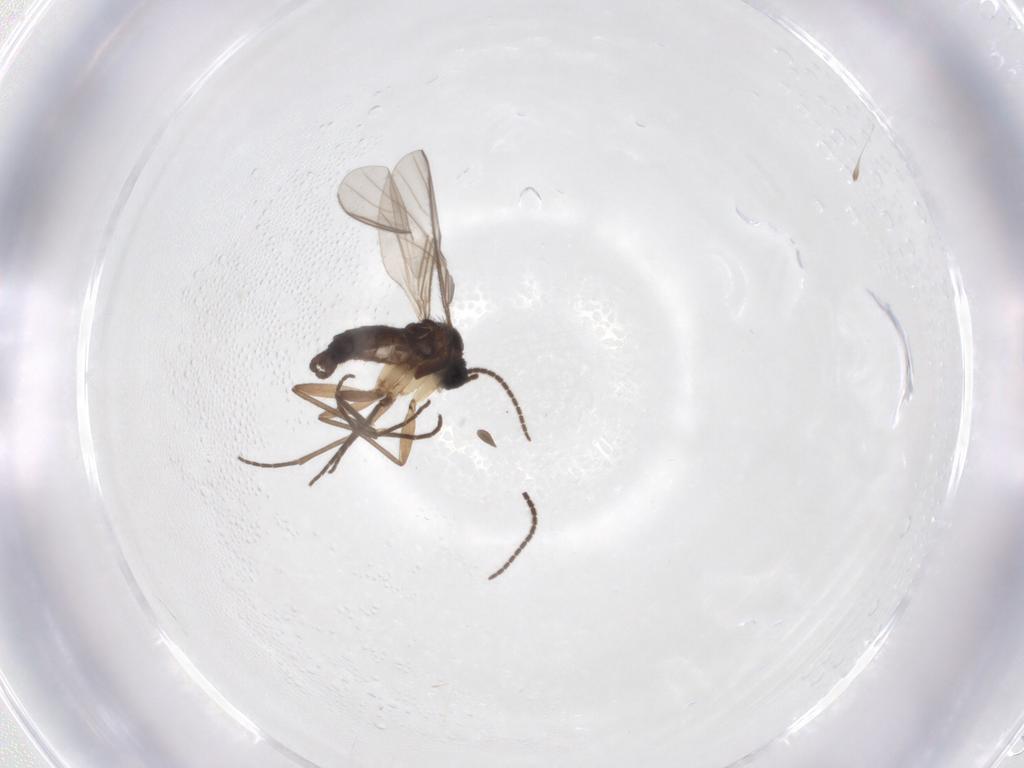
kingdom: Animalia
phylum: Arthropoda
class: Insecta
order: Diptera
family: Sciaridae
